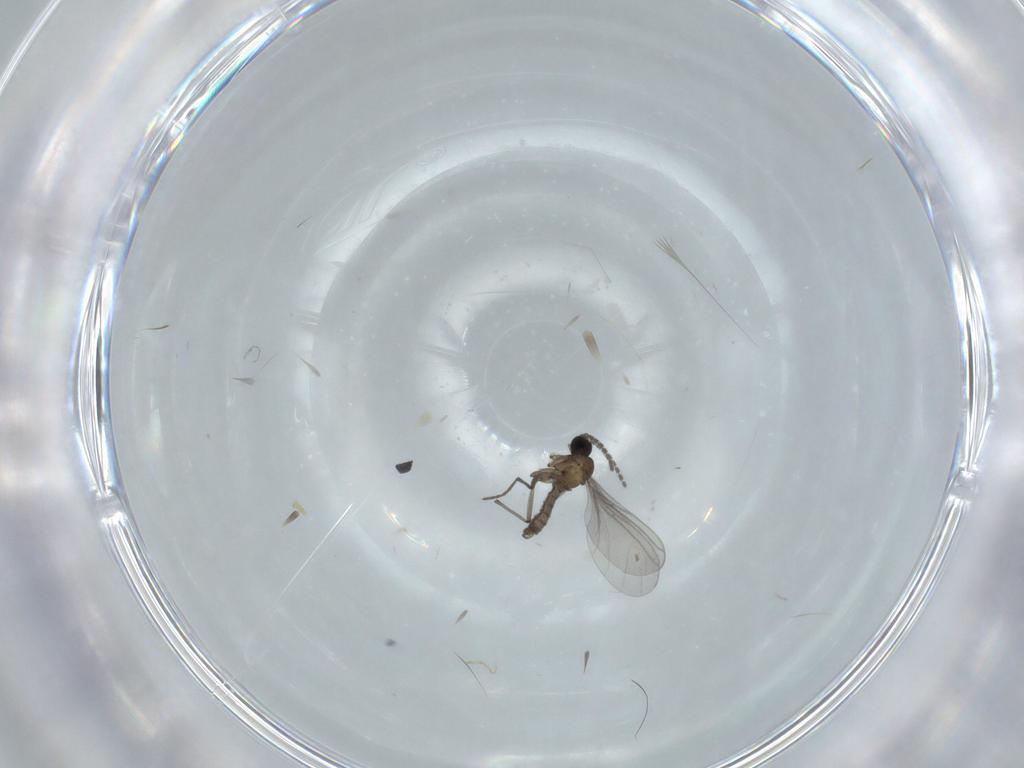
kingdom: Animalia
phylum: Arthropoda
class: Insecta
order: Diptera
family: Sciaridae
